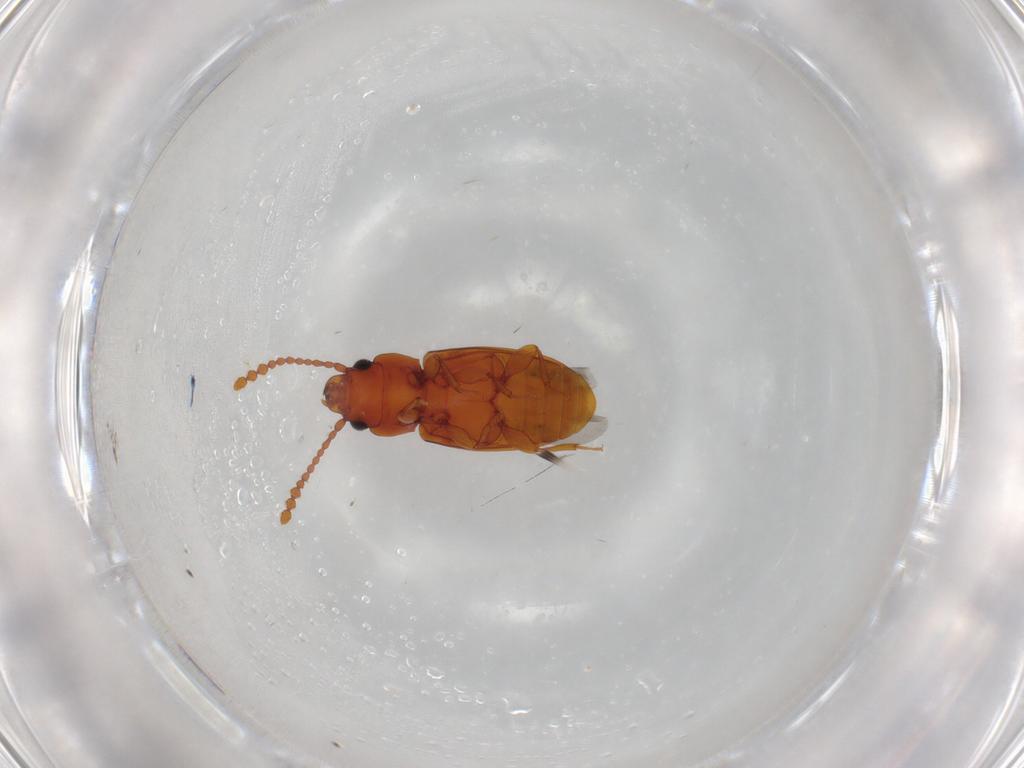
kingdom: Animalia
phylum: Arthropoda
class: Insecta
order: Coleoptera
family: Laemophloeidae
